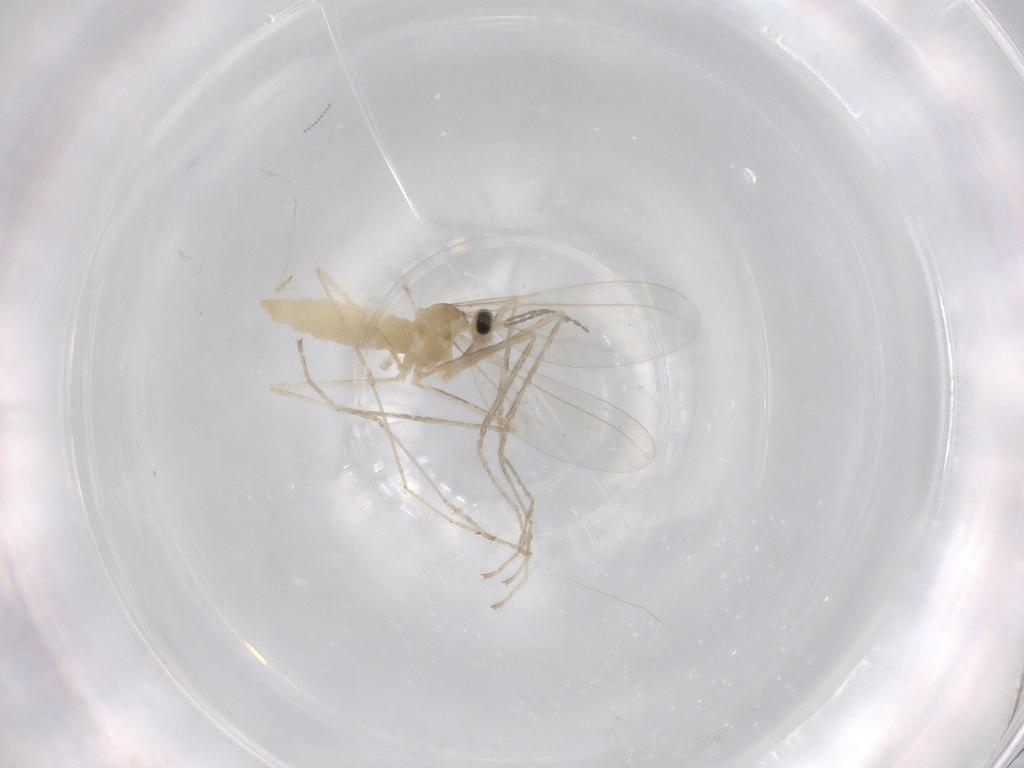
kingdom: Animalia
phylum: Arthropoda
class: Insecta
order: Diptera
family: Cecidomyiidae
